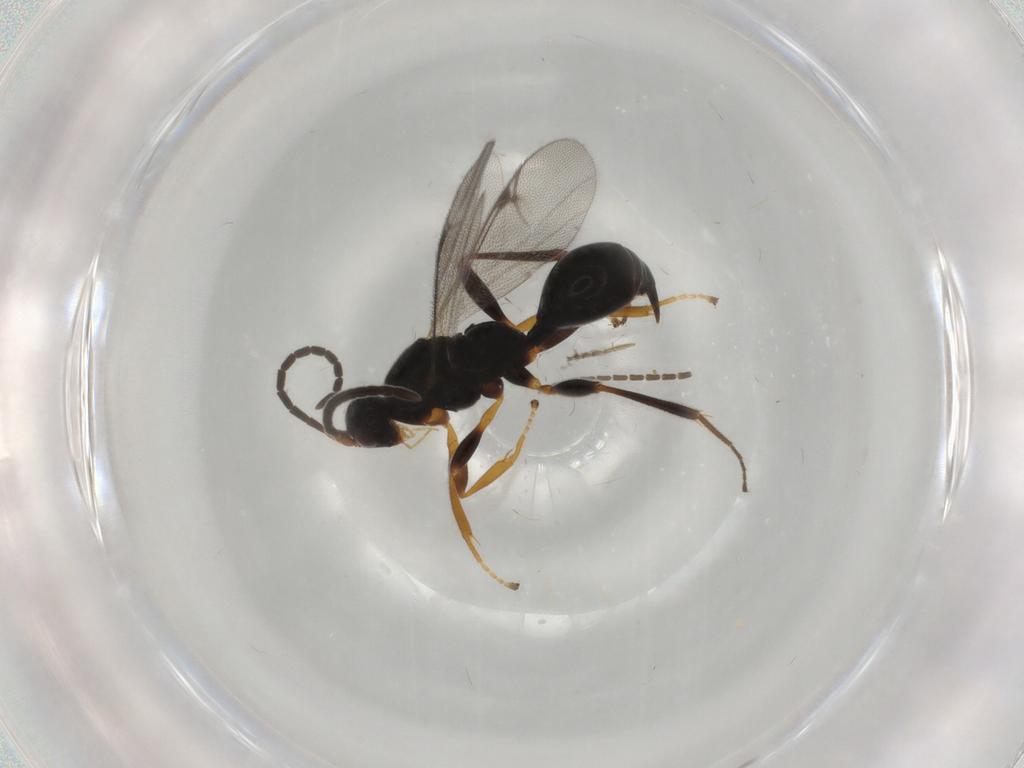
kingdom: Animalia
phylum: Arthropoda
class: Insecta
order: Hymenoptera
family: Proctotrupidae
